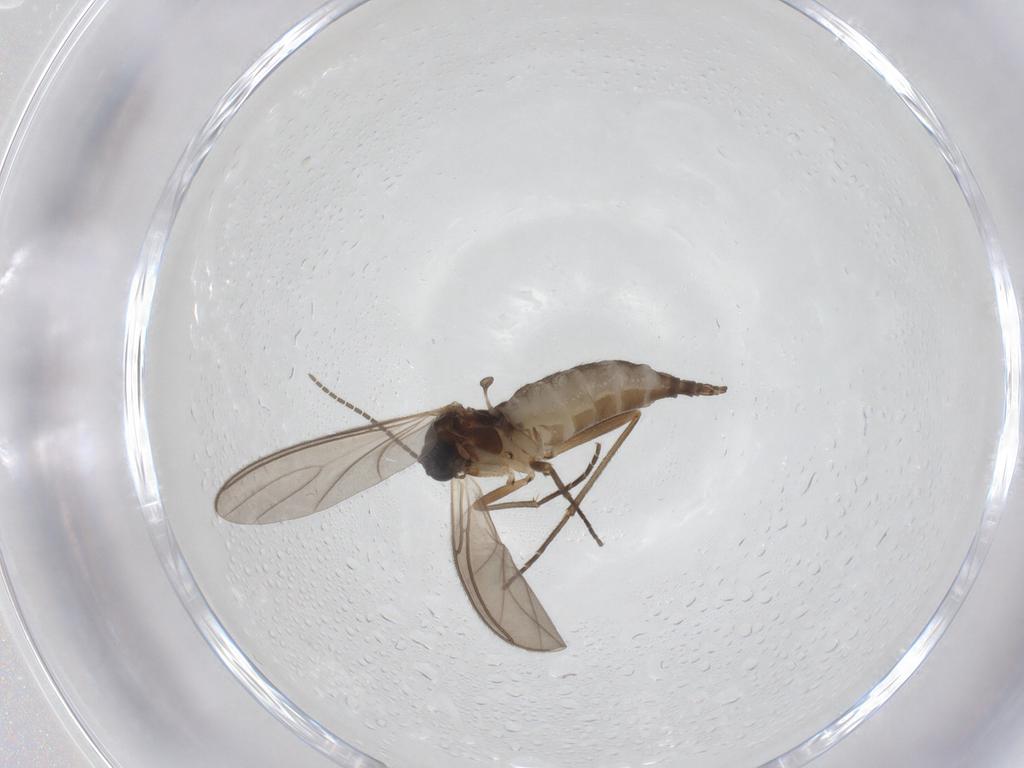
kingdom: Animalia
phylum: Arthropoda
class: Insecta
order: Diptera
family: Sciaridae
